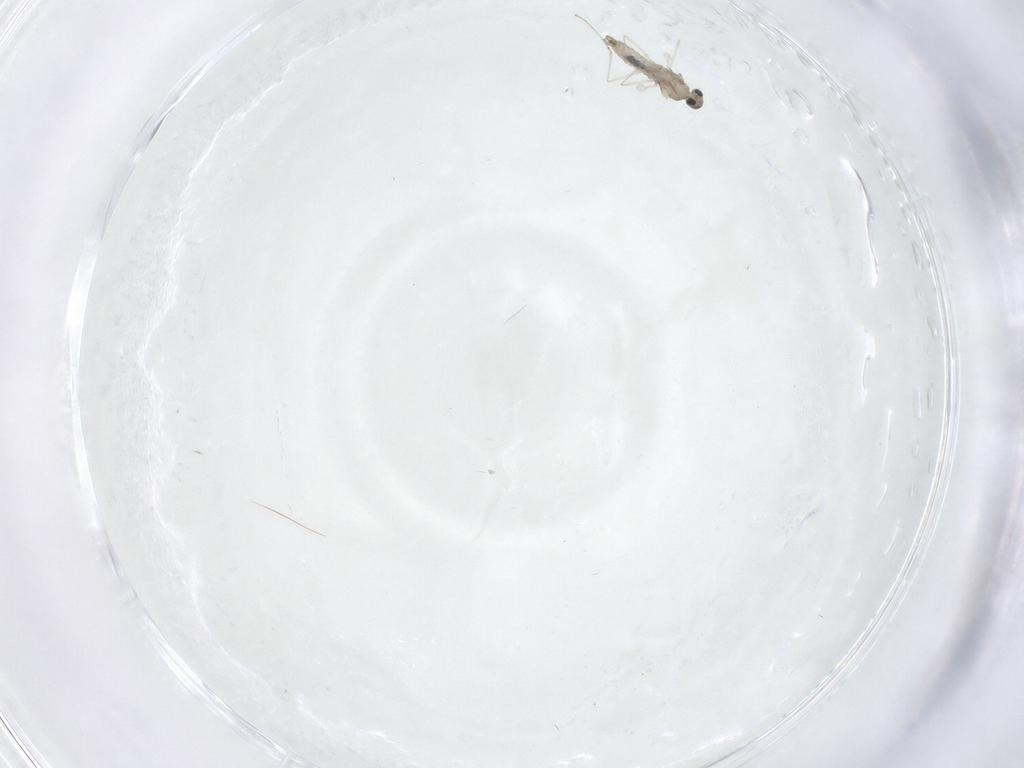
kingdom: Animalia
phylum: Arthropoda
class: Insecta
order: Diptera
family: Cecidomyiidae
